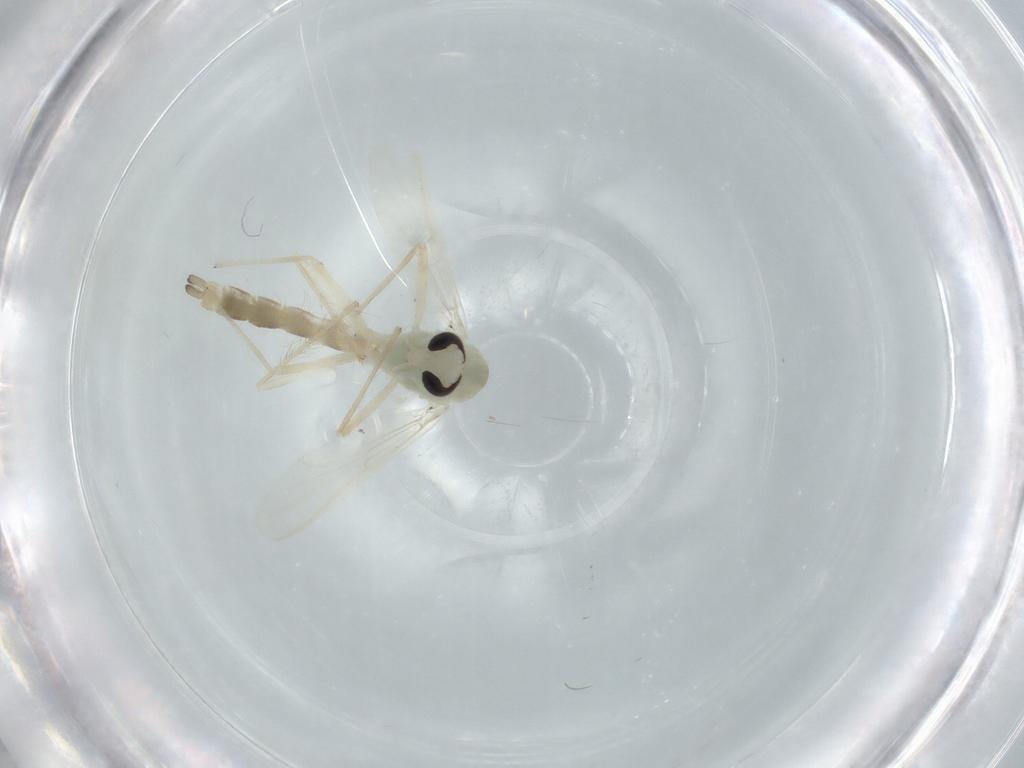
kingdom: Animalia
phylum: Arthropoda
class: Insecta
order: Diptera
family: Chironomidae
